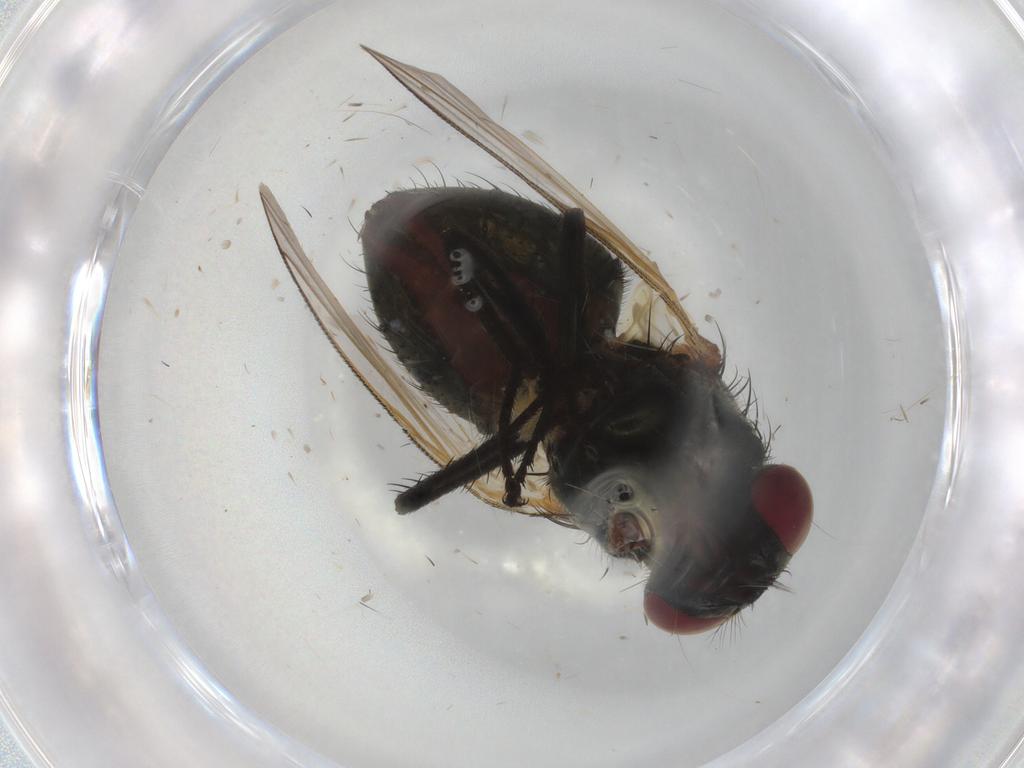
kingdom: Animalia
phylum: Arthropoda
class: Insecta
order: Diptera
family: Glossinidae
